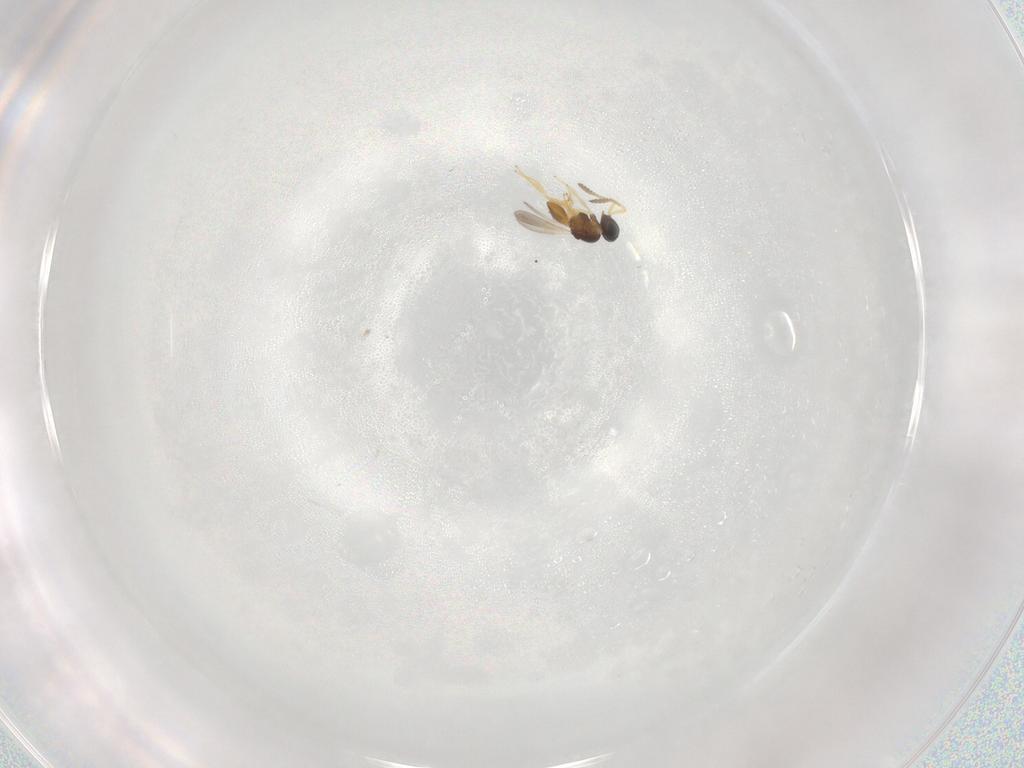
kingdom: Animalia
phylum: Arthropoda
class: Insecta
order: Hymenoptera
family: Scelionidae
